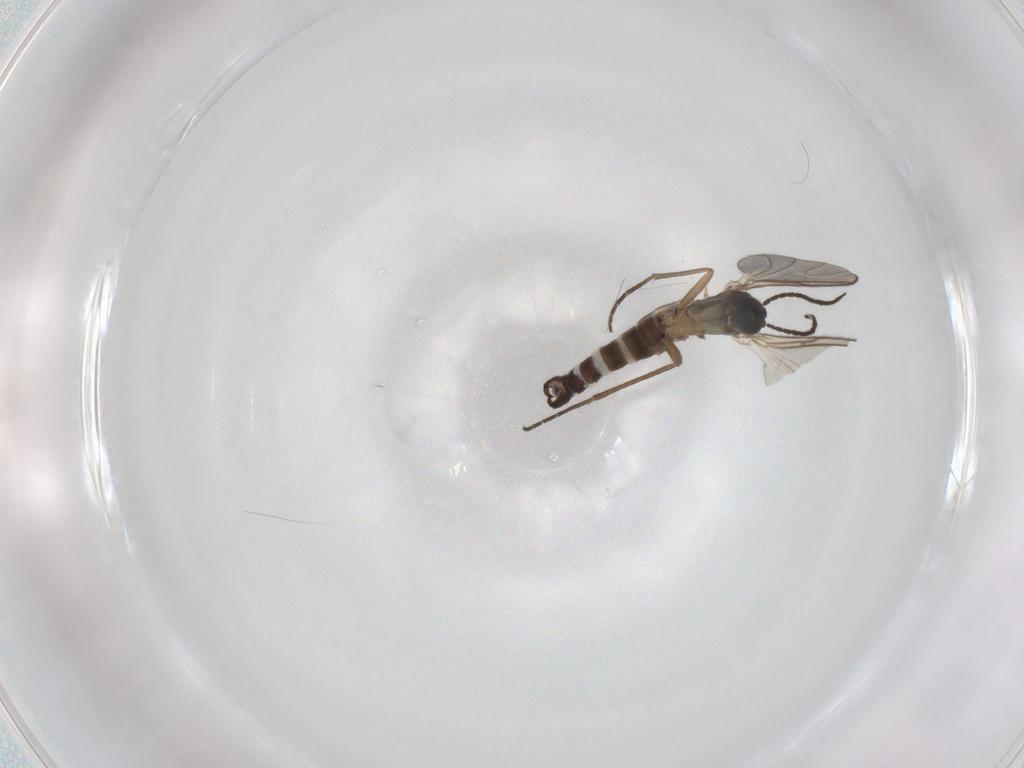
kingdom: Animalia
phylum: Arthropoda
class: Insecta
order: Diptera
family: Sciaridae
